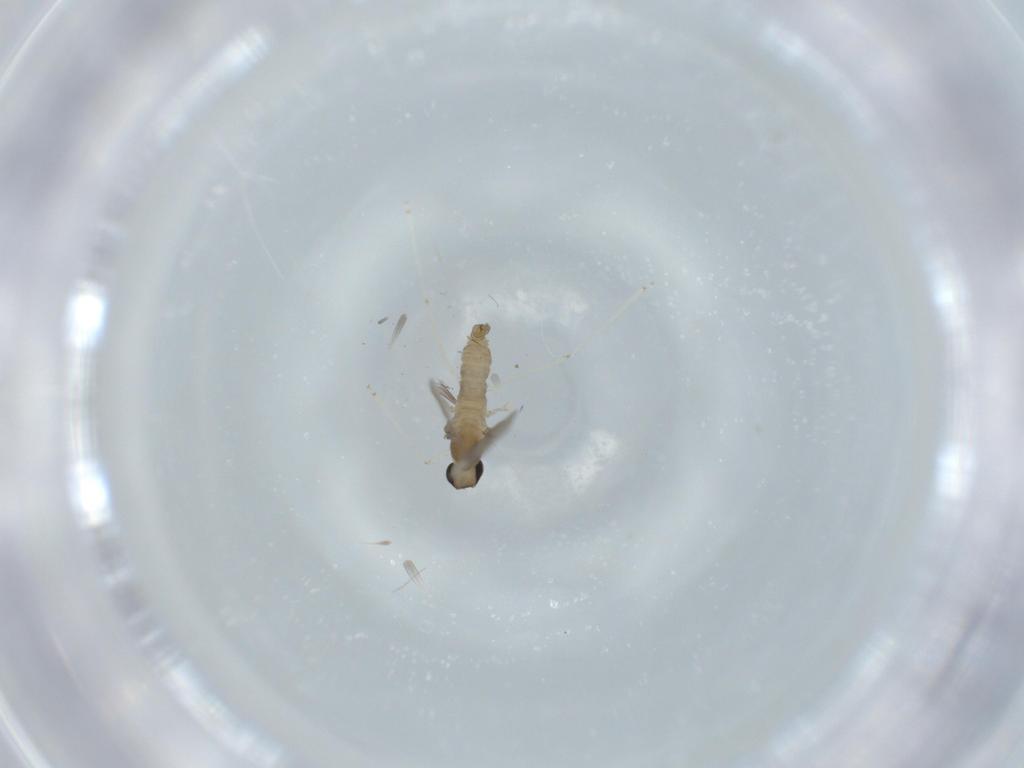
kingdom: Animalia
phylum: Arthropoda
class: Insecta
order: Diptera
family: Cecidomyiidae
